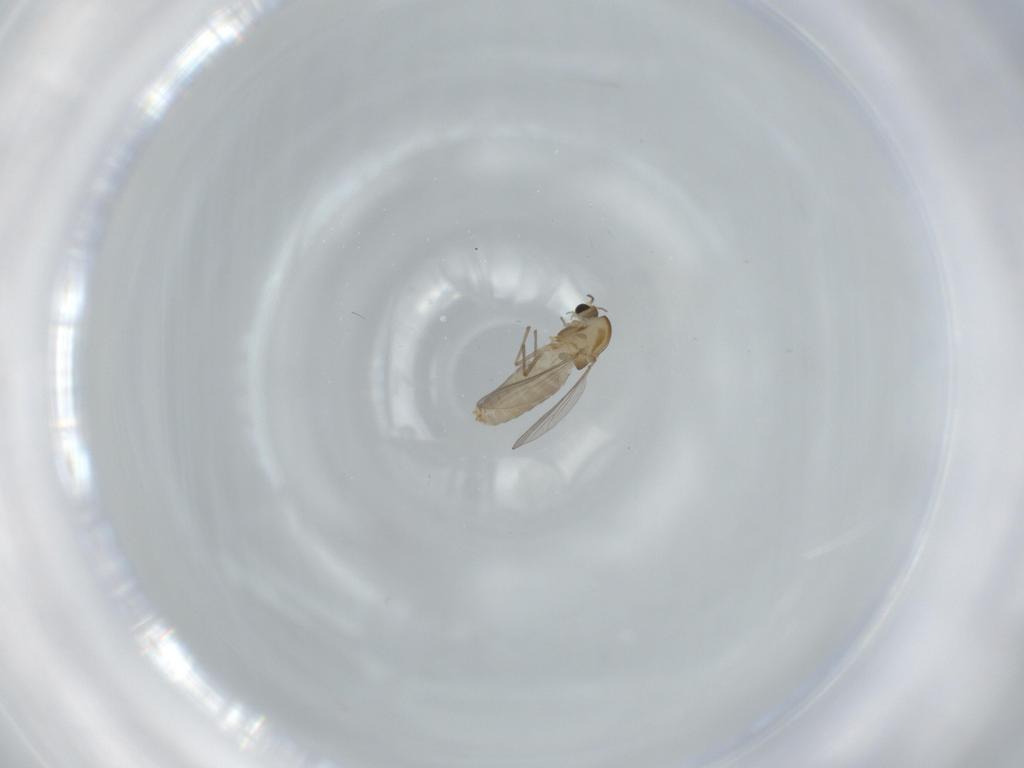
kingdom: Animalia
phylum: Arthropoda
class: Insecta
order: Diptera
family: Chironomidae
